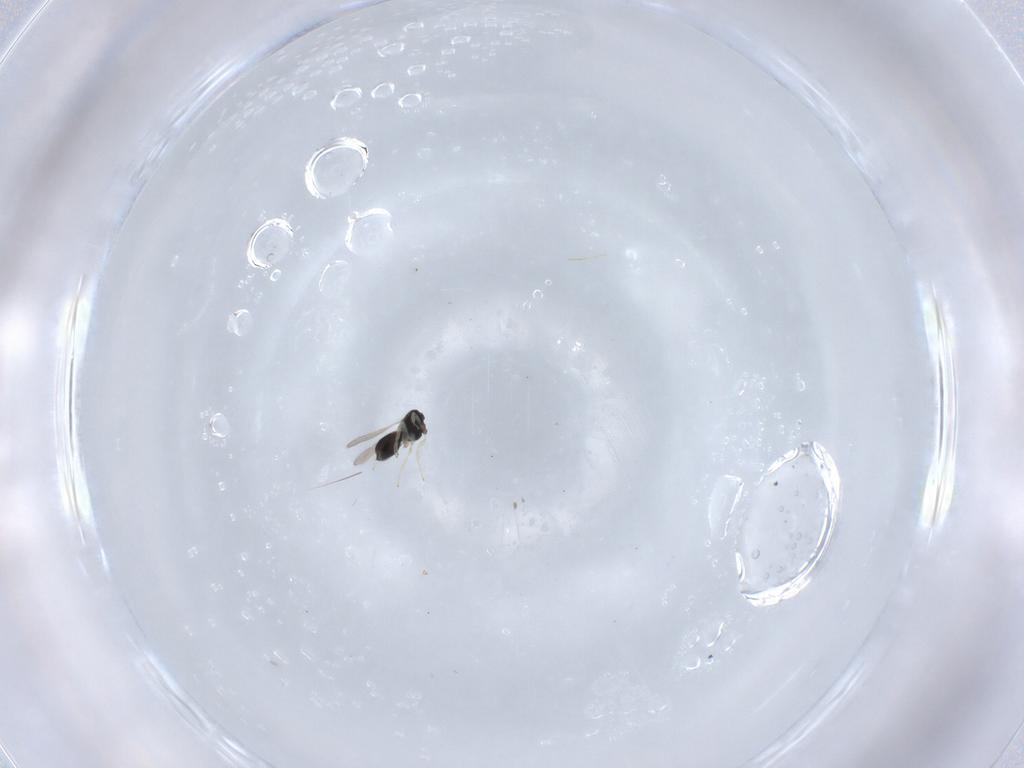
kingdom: Animalia
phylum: Arthropoda
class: Insecta
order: Hymenoptera
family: Scelionidae
